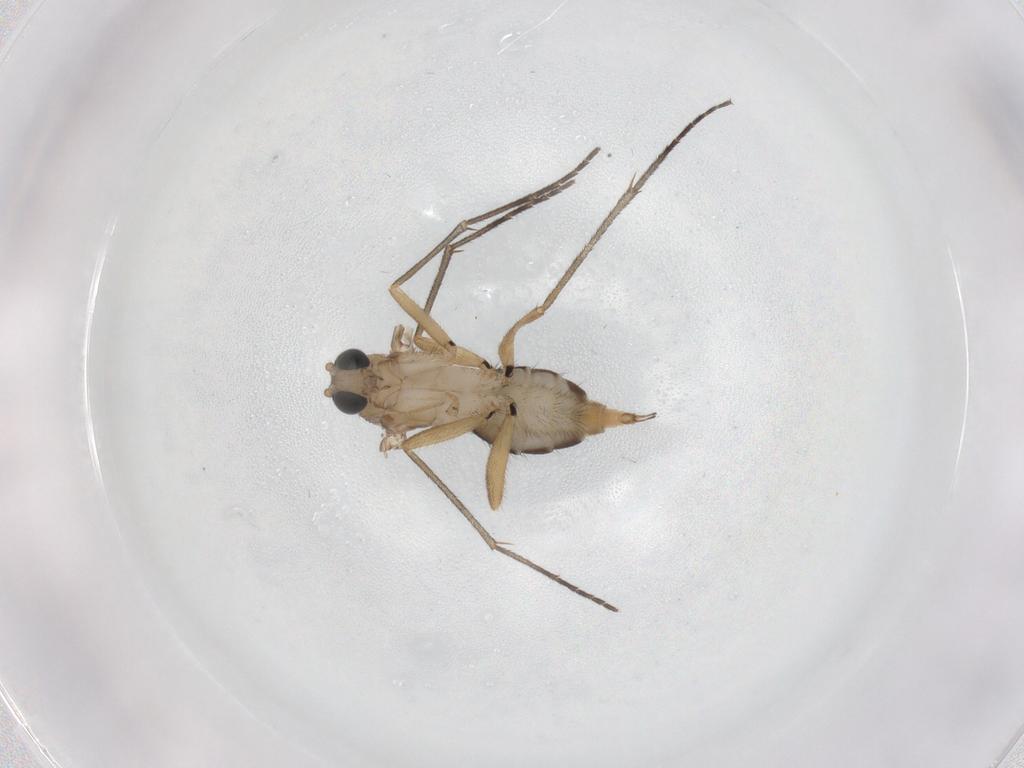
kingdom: Animalia
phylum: Arthropoda
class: Insecta
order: Diptera
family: Sciaridae
